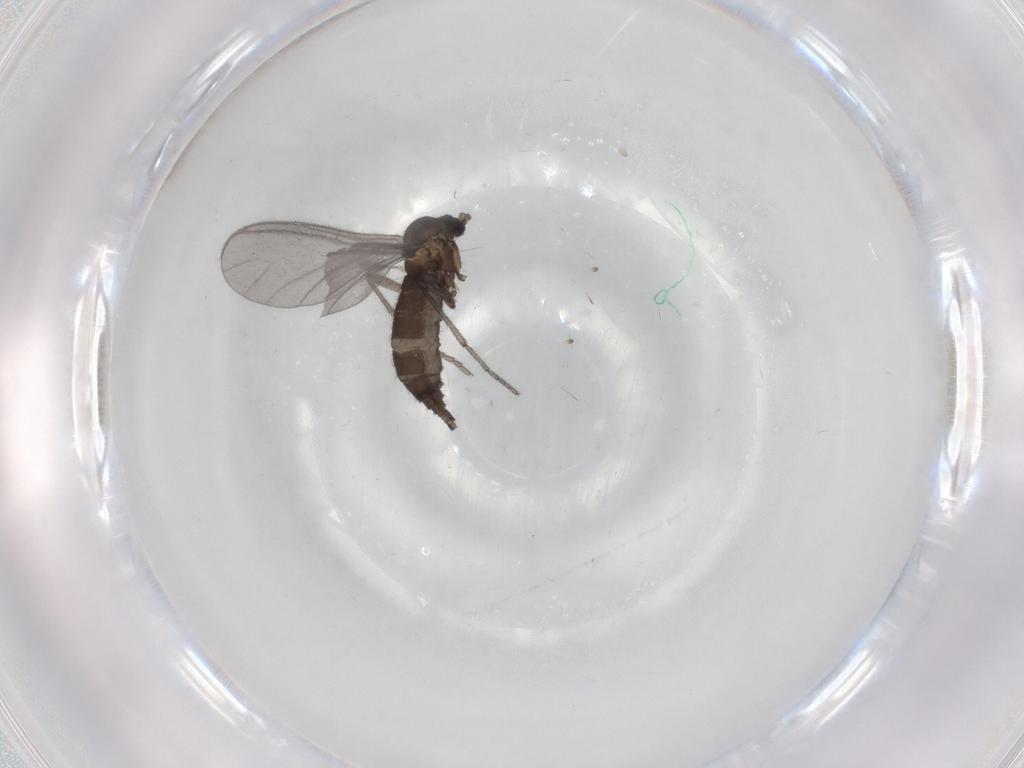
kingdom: Animalia
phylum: Arthropoda
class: Insecta
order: Diptera
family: Sciaridae
